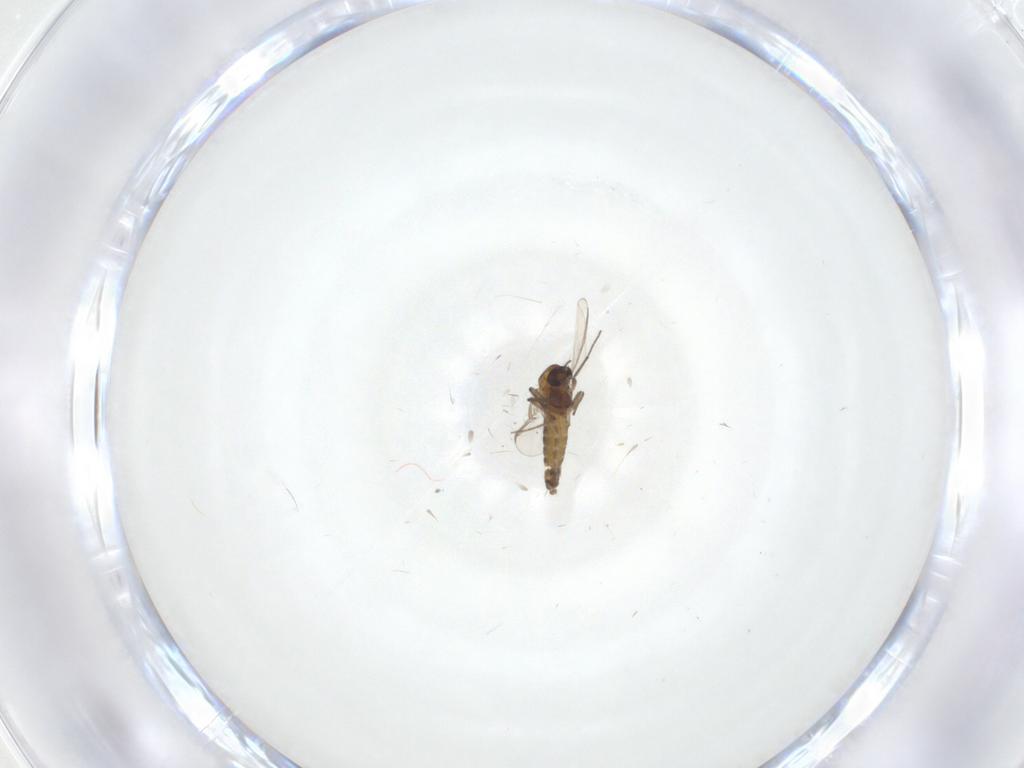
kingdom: Animalia
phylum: Arthropoda
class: Insecta
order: Diptera
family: Chironomidae
